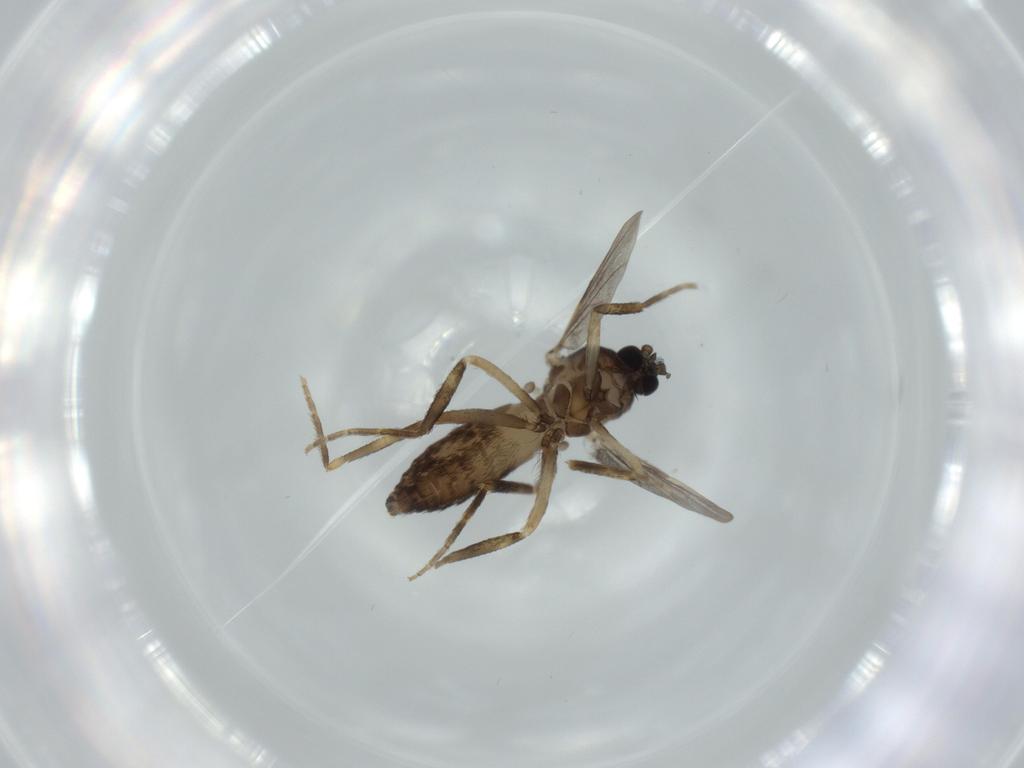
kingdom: Animalia
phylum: Arthropoda
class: Insecta
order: Diptera
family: Ceratopogonidae
